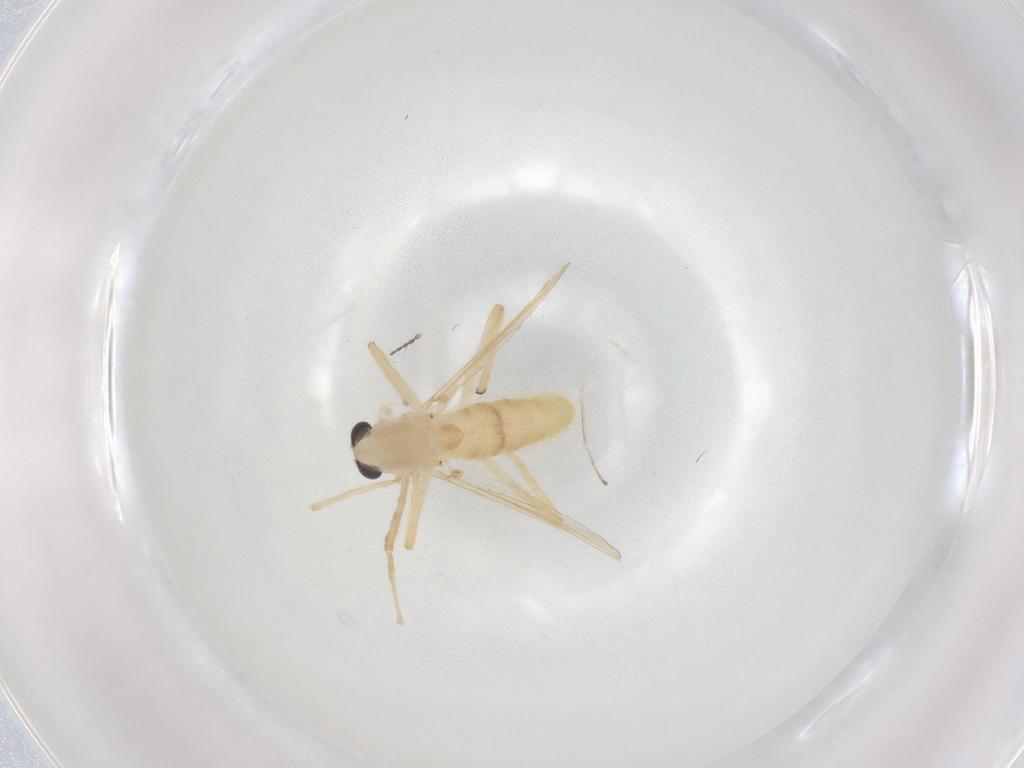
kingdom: Animalia
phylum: Arthropoda
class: Insecta
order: Diptera
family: Chironomidae
